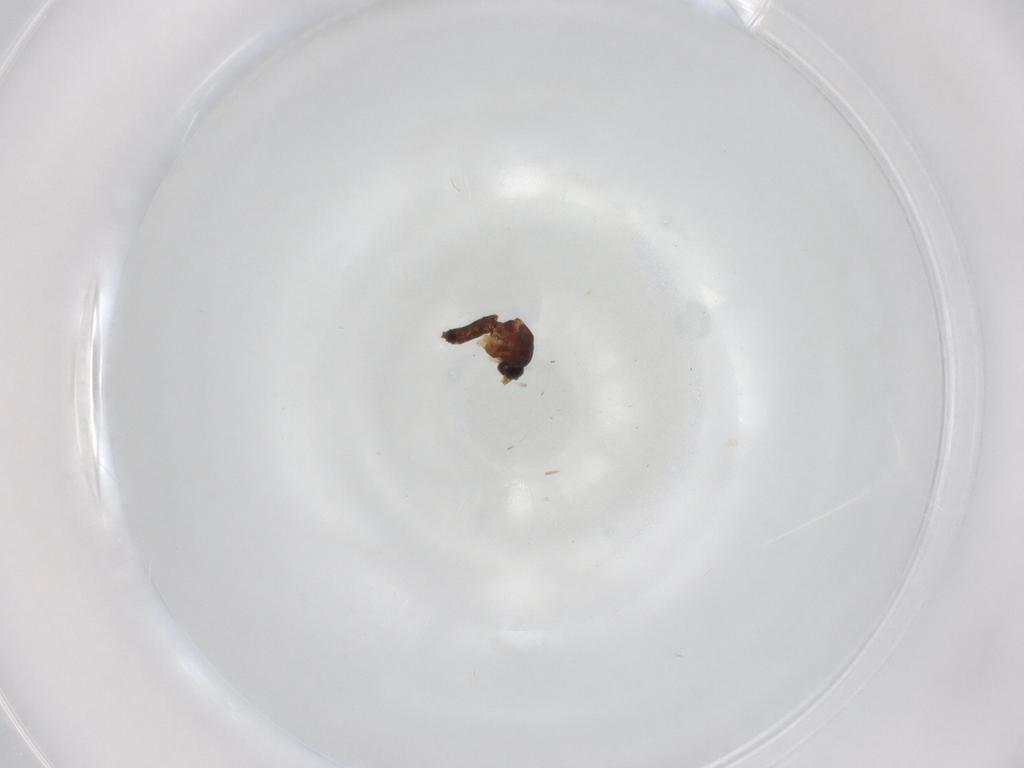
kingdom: Animalia
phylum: Arthropoda
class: Insecta
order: Diptera
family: Ceratopogonidae
